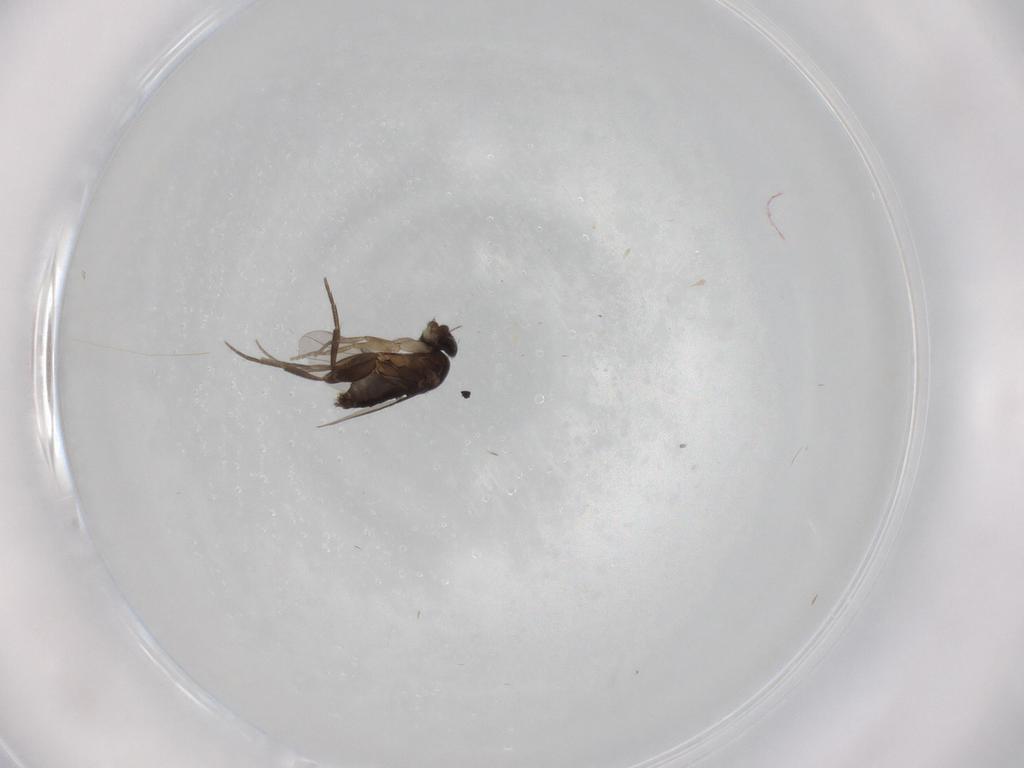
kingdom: Animalia
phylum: Arthropoda
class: Insecta
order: Diptera
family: Phoridae
